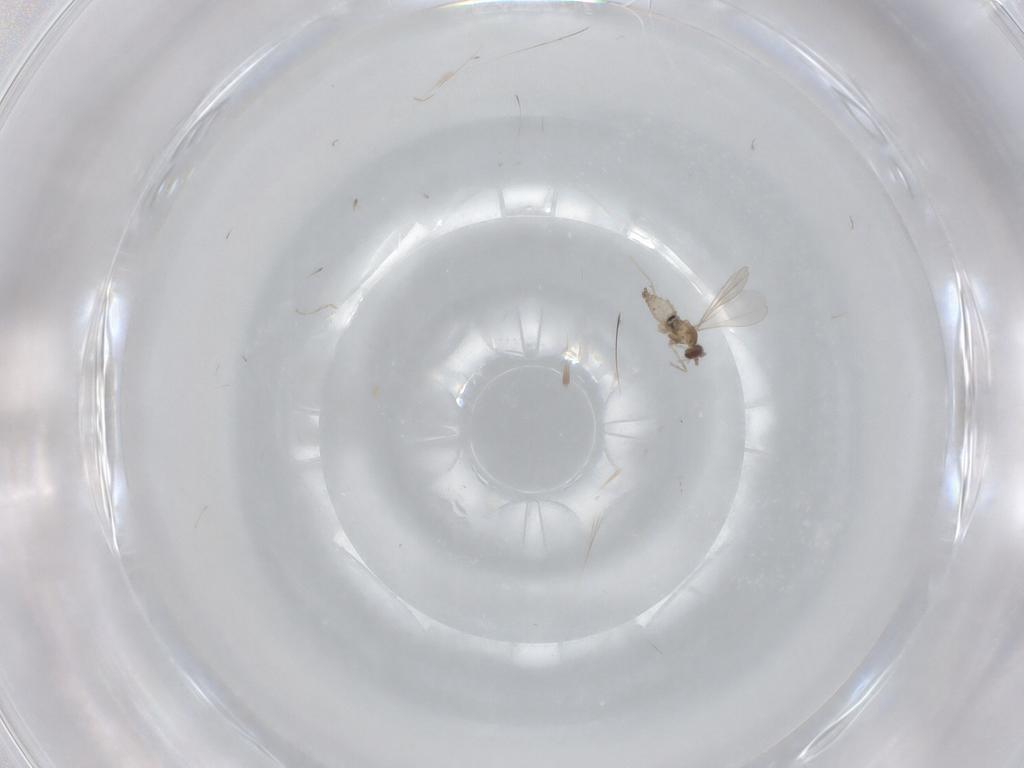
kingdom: Animalia
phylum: Arthropoda
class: Insecta
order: Diptera
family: Cecidomyiidae
